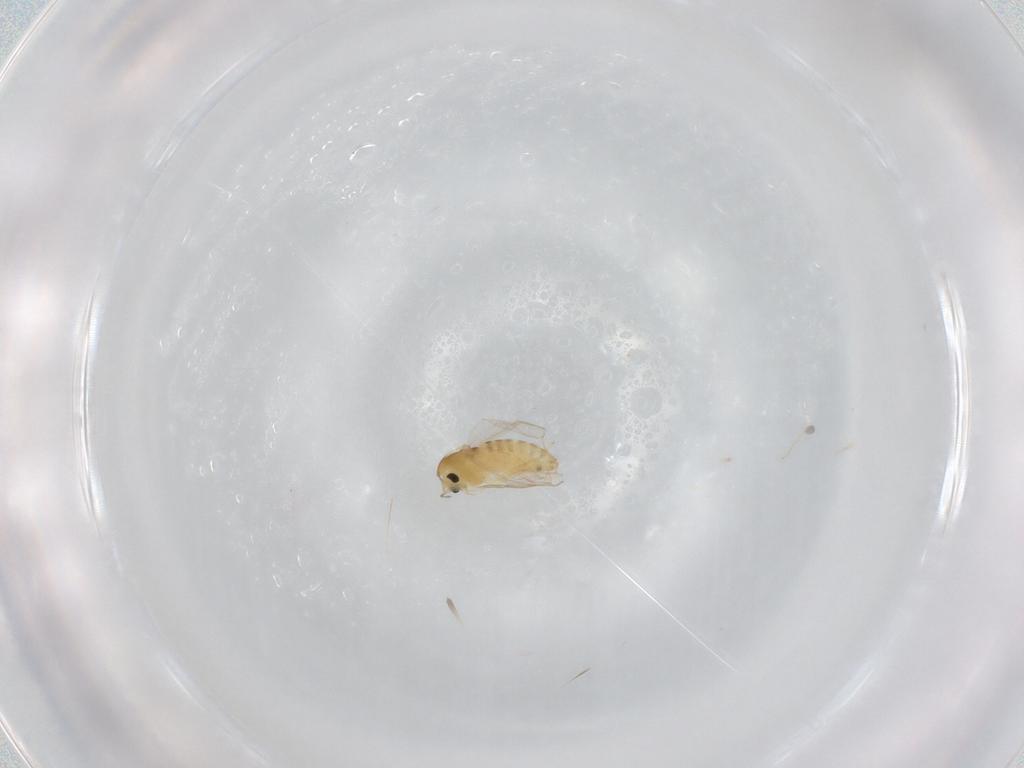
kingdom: Animalia
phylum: Arthropoda
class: Insecta
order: Diptera
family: Chironomidae
